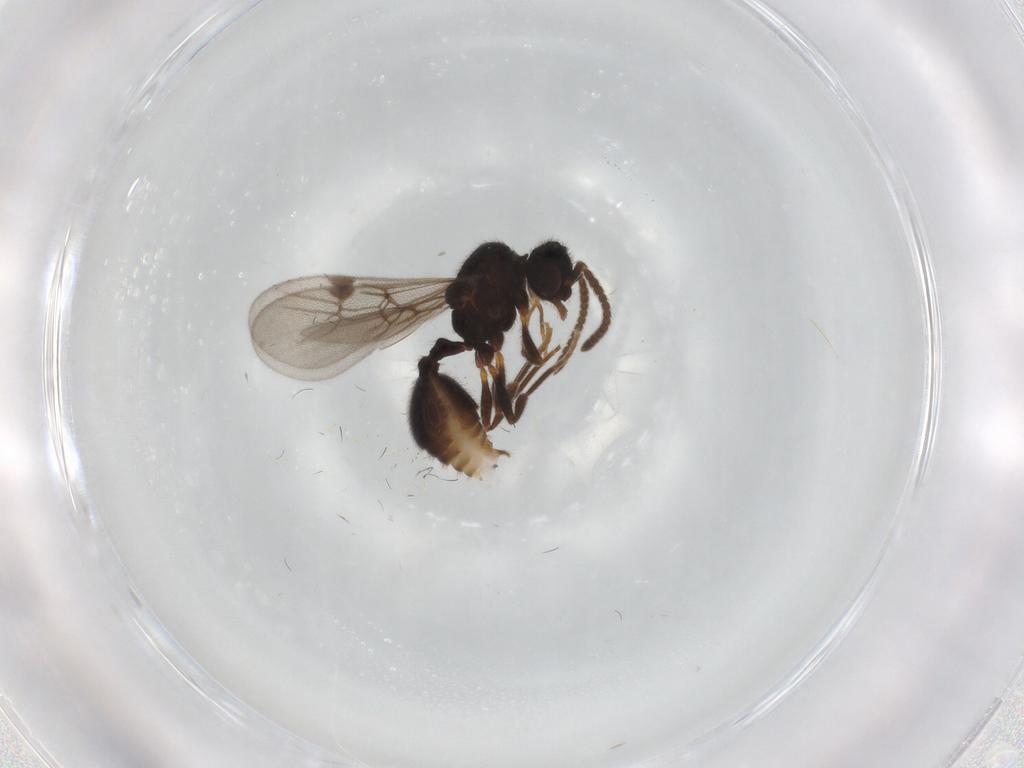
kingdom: Animalia
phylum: Arthropoda
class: Insecta
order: Hymenoptera
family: Formicidae
